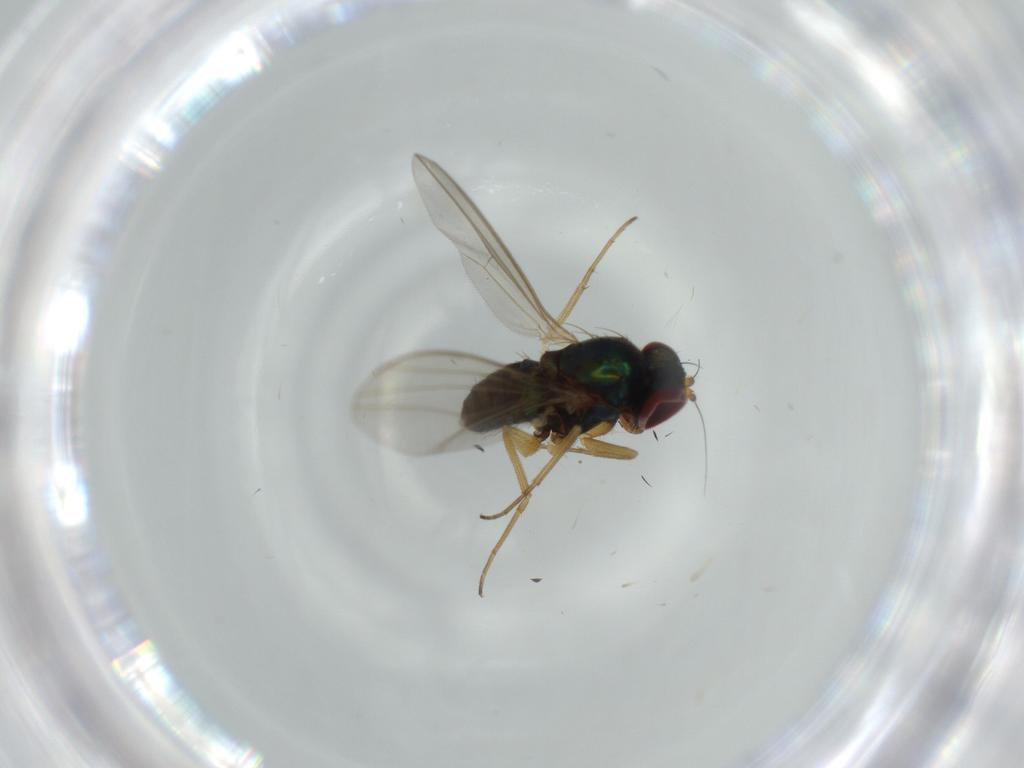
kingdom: Animalia
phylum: Arthropoda
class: Insecta
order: Diptera
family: Dolichopodidae
